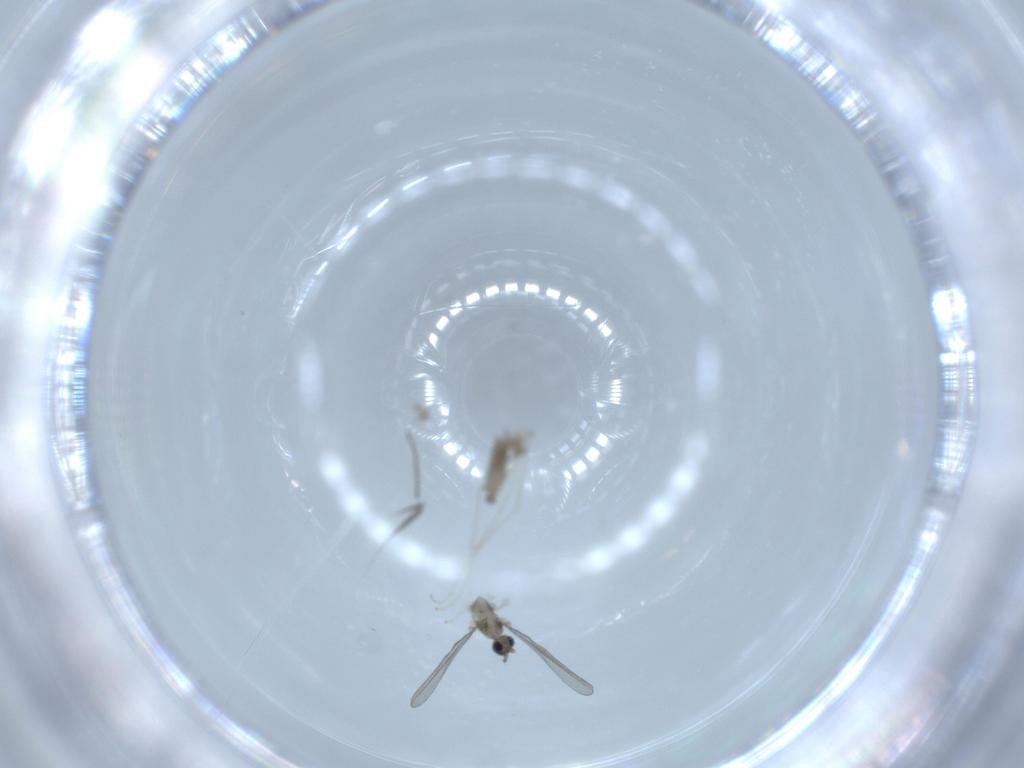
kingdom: Animalia
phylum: Arthropoda
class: Insecta
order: Diptera
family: Cecidomyiidae
